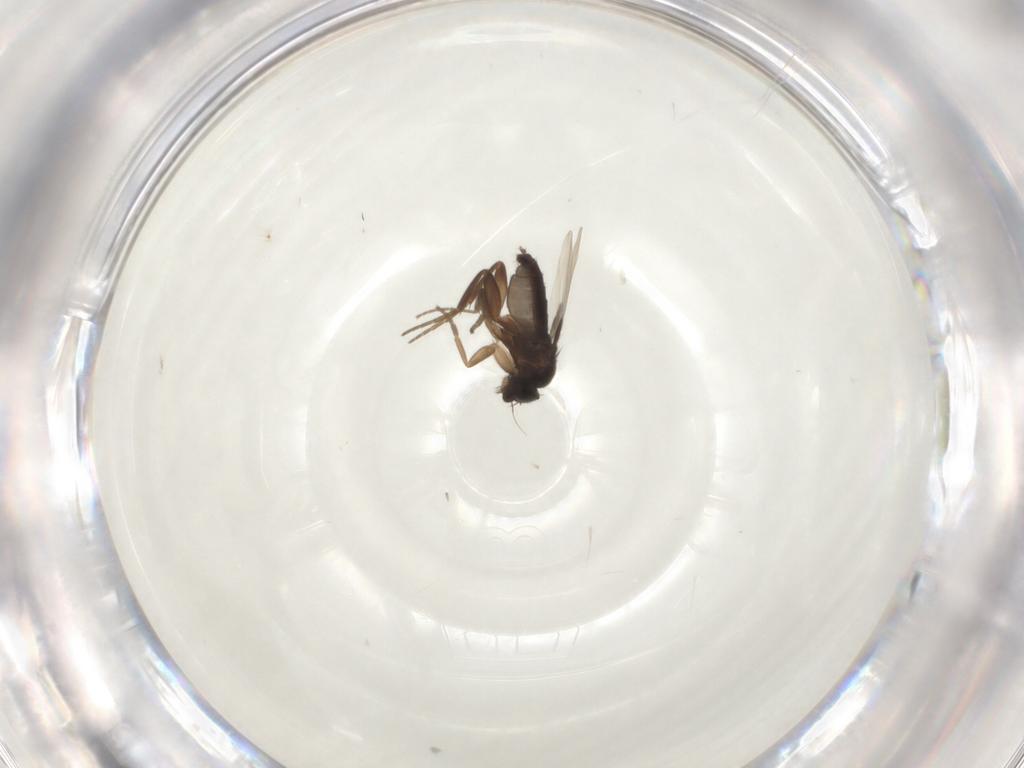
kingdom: Animalia
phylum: Arthropoda
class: Insecta
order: Diptera
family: Phoridae
